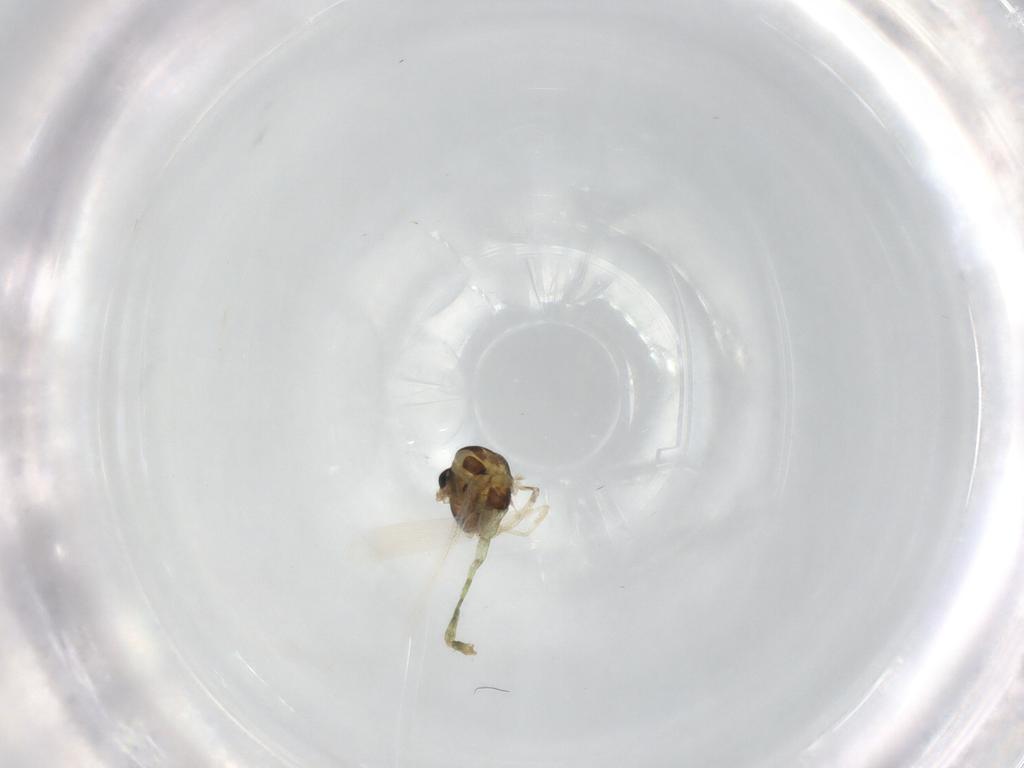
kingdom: Animalia
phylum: Arthropoda
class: Insecta
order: Diptera
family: Chironomidae
